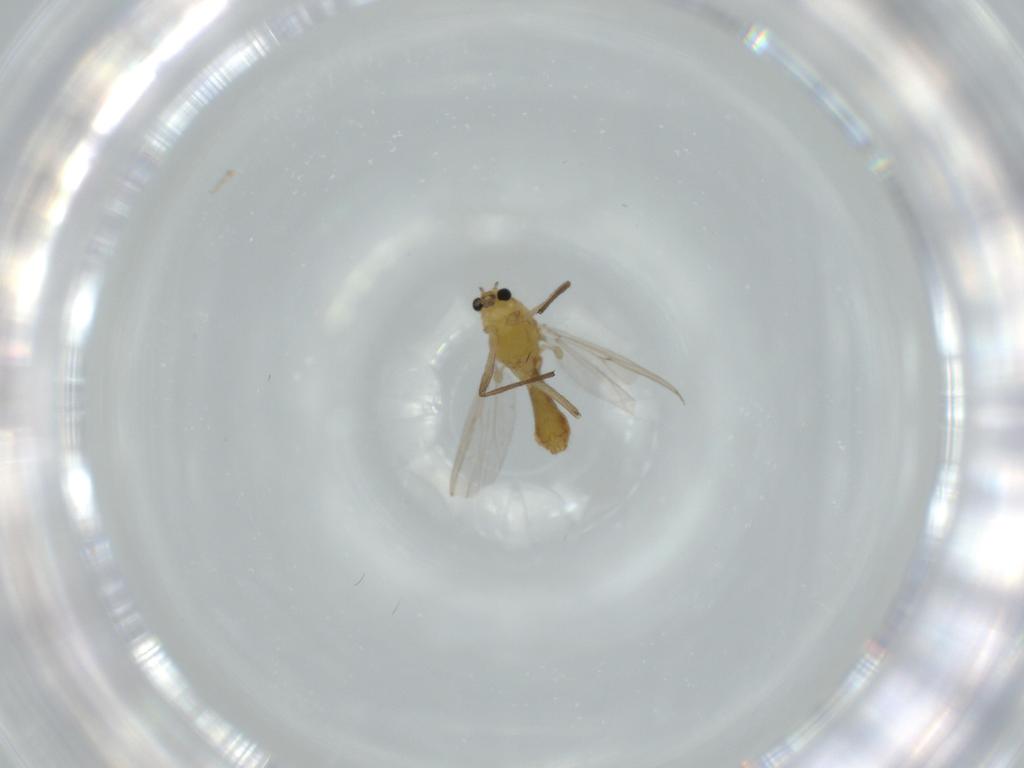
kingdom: Animalia
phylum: Arthropoda
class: Insecta
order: Diptera
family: Chironomidae
